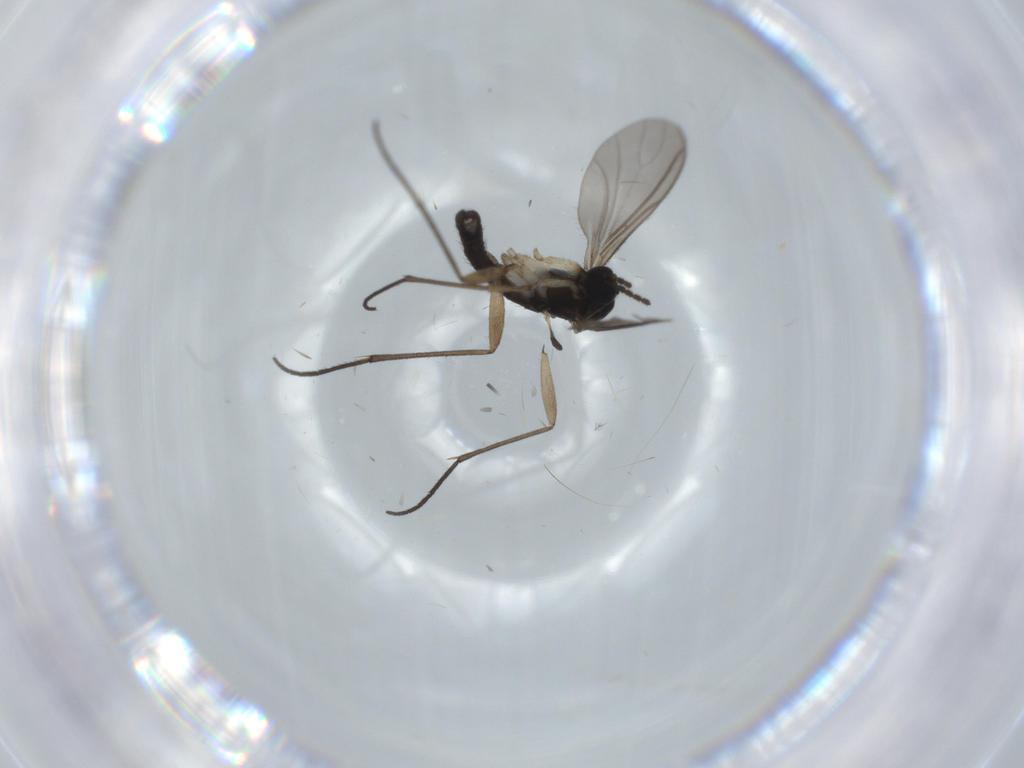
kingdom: Animalia
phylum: Arthropoda
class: Insecta
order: Diptera
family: Sciaridae
